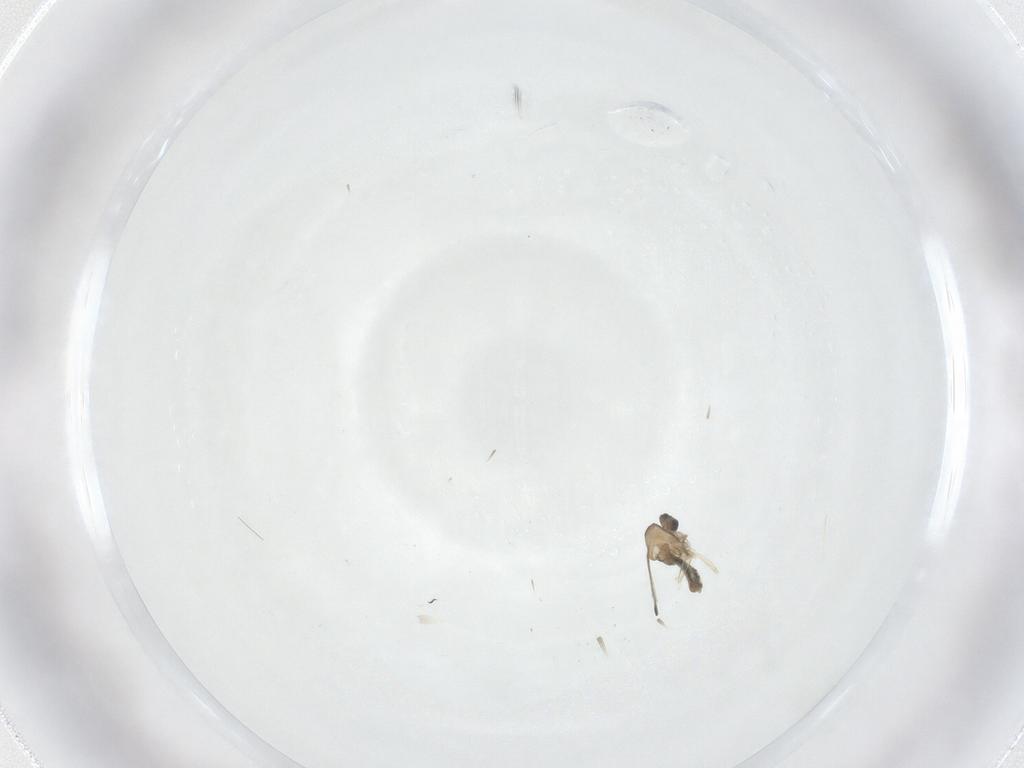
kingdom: Animalia
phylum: Arthropoda
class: Insecta
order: Diptera
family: Cecidomyiidae
